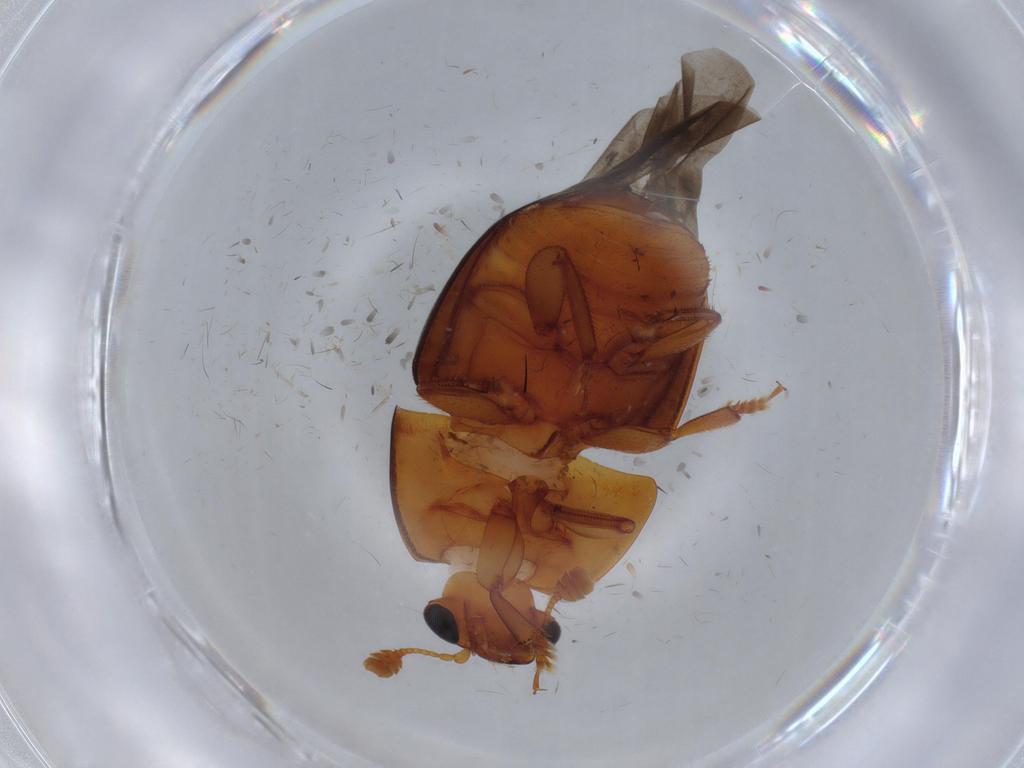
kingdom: Animalia
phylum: Arthropoda
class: Insecta
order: Coleoptera
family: Nitidulidae
